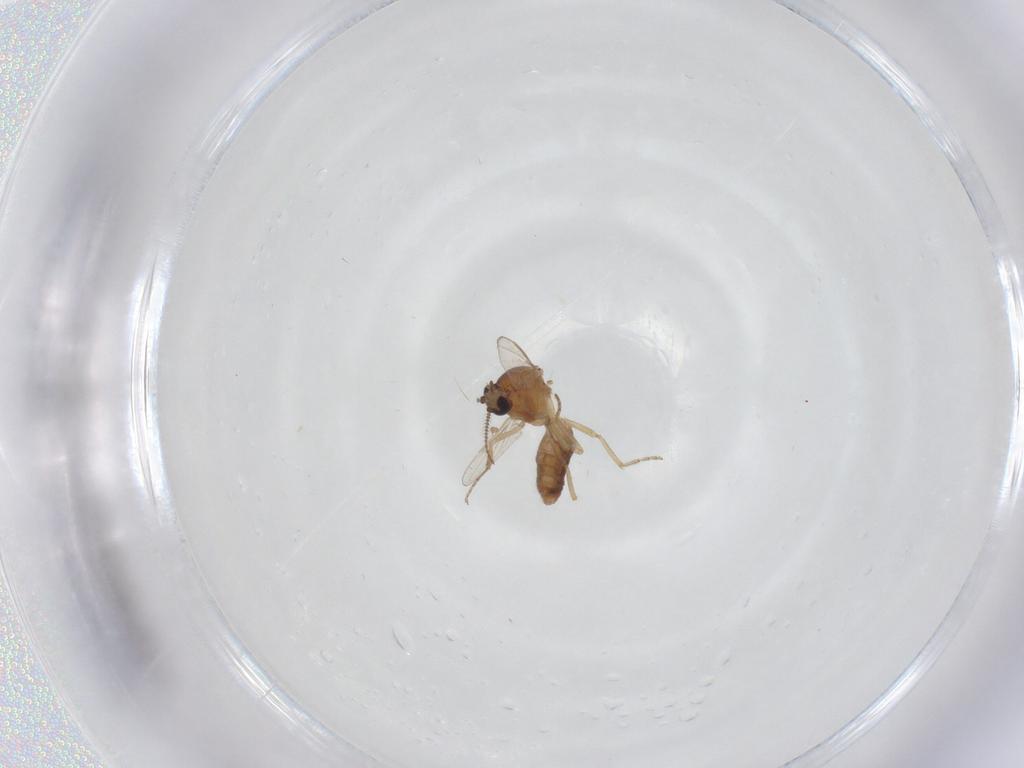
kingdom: Animalia
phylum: Arthropoda
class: Insecta
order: Diptera
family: Ceratopogonidae
